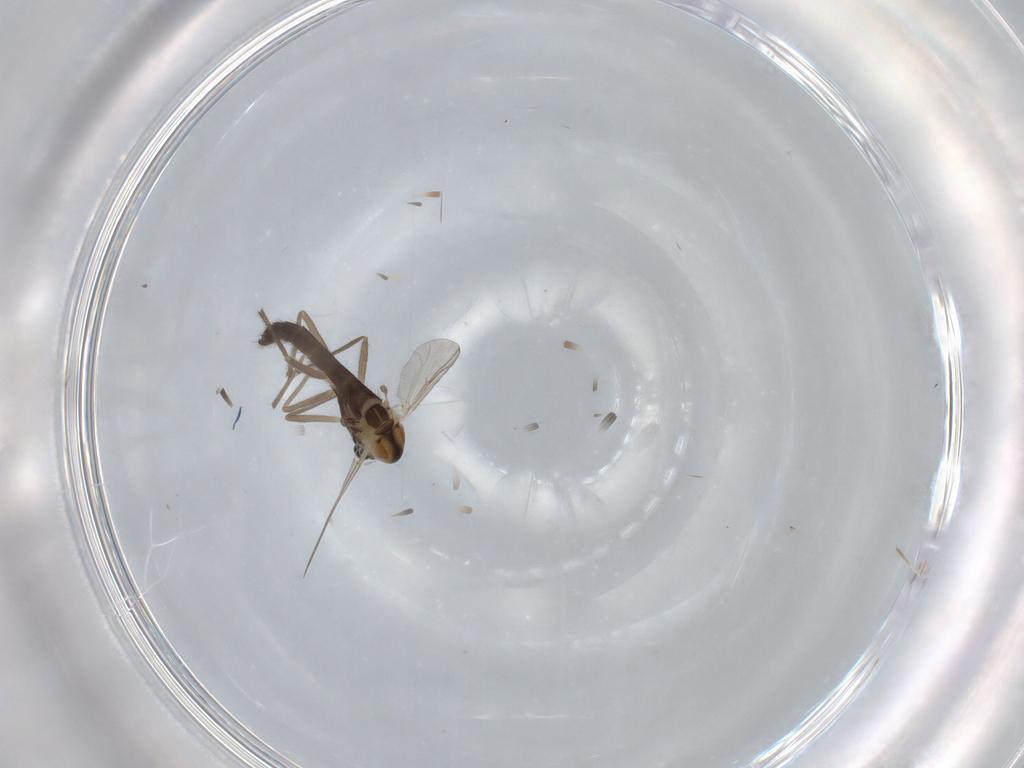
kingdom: Animalia
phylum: Arthropoda
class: Insecta
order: Diptera
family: Chironomidae
